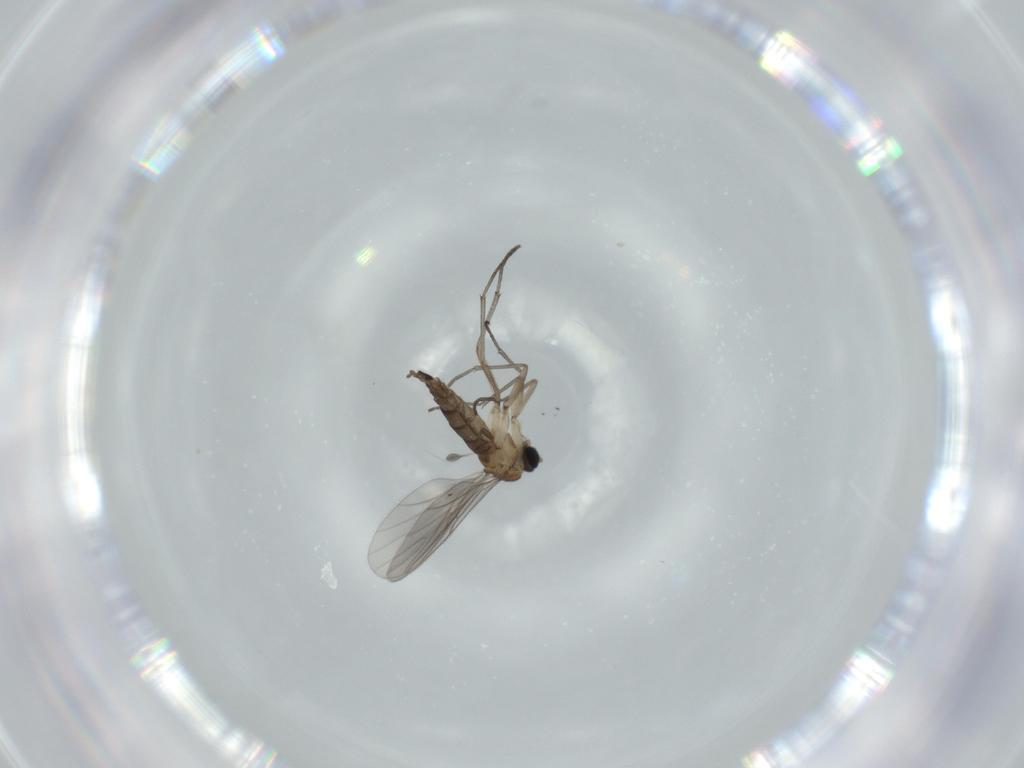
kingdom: Animalia
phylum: Arthropoda
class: Insecta
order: Diptera
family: Sciaridae
